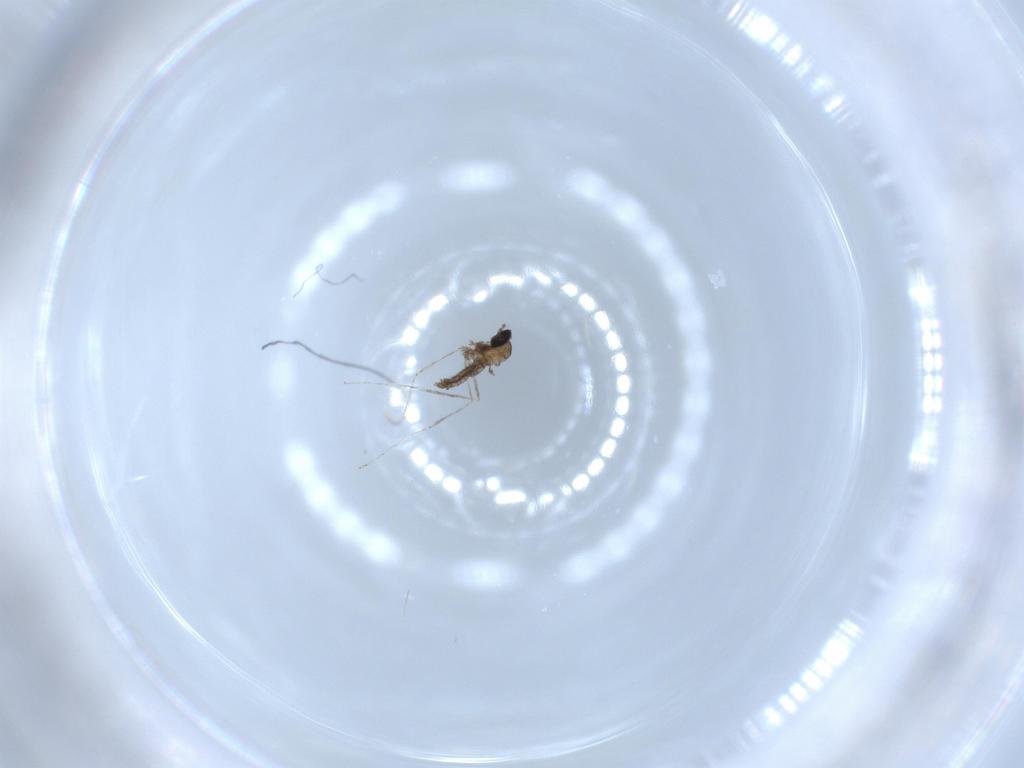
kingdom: Animalia
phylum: Arthropoda
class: Insecta
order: Diptera
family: Cecidomyiidae
